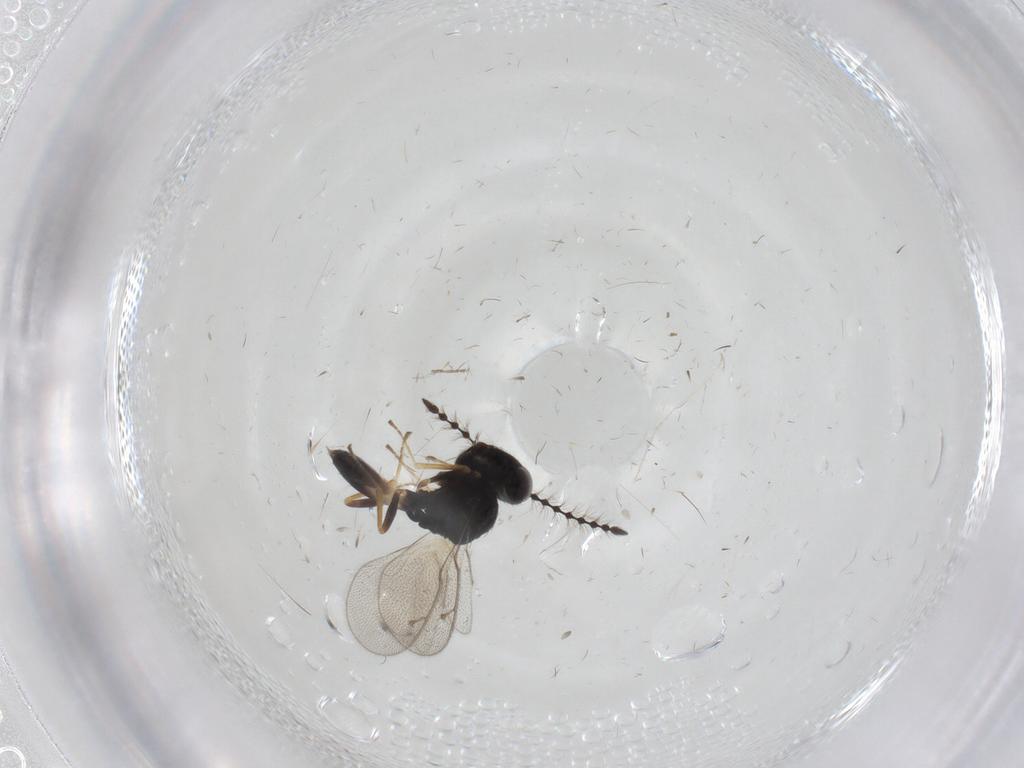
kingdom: Animalia
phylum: Arthropoda
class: Insecta
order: Hymenoptera
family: Pteromalidae
